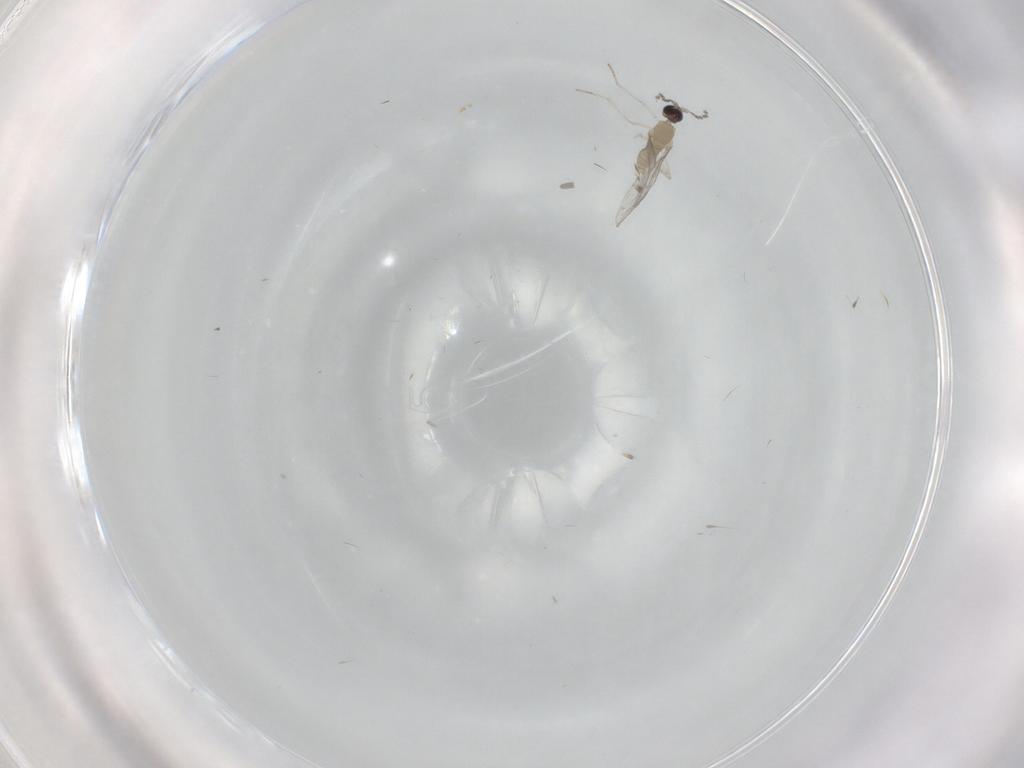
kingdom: Animalia
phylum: Arthropoda
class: Insecta
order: Diptera
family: Cecidomyiidae
